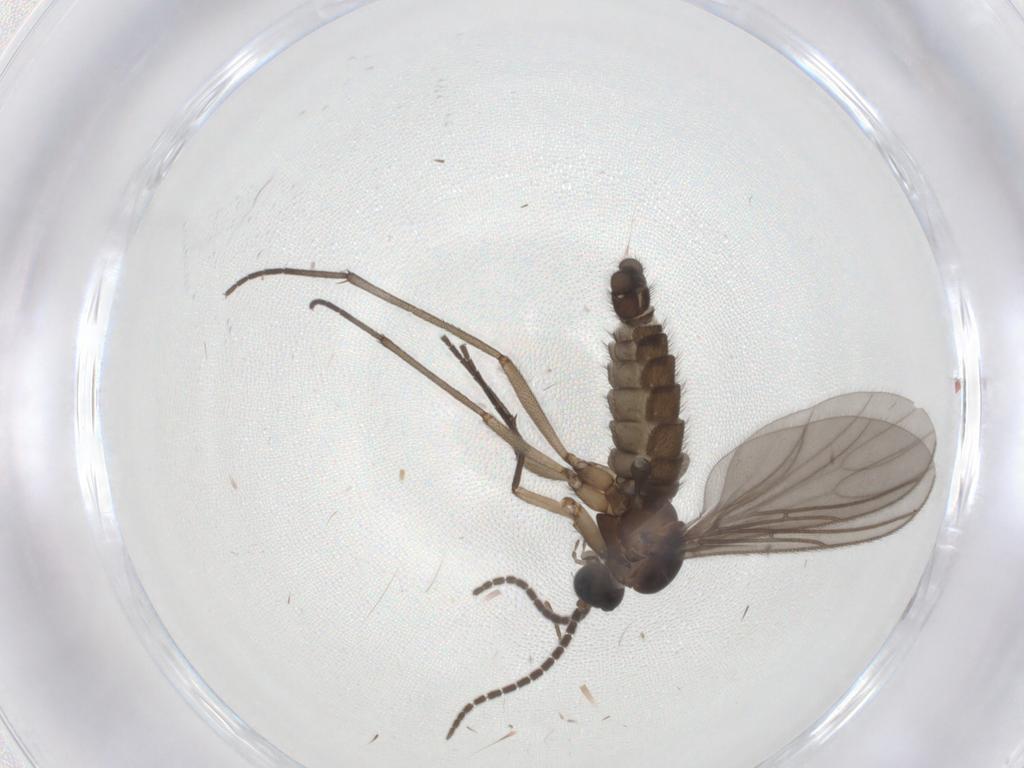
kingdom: Animalia
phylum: Arthropoda
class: Insecta
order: Diptera
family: Sciaridae
